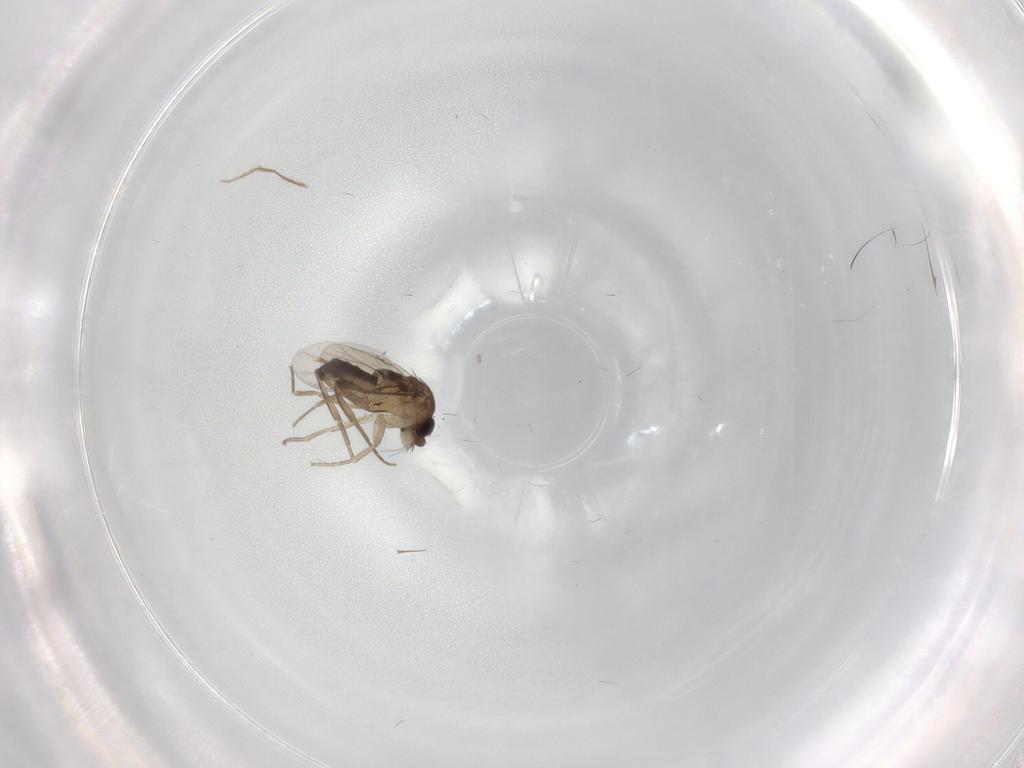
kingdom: Animalia
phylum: Arthropoda
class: Insecta
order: Diptera
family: Phoridae
